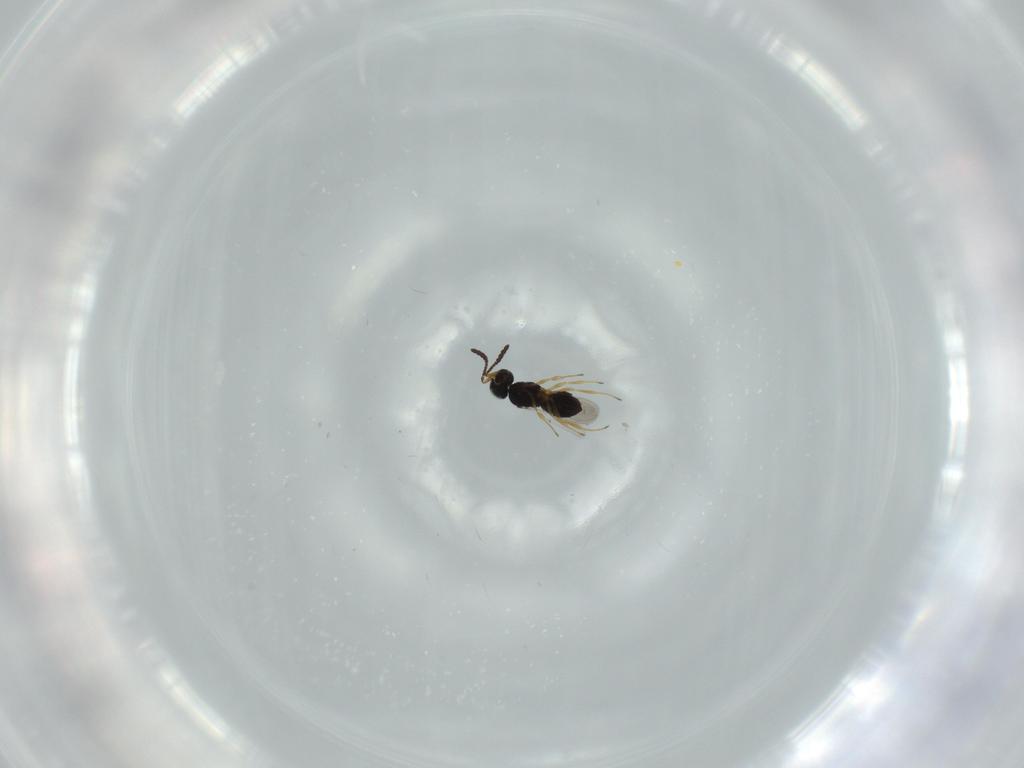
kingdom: Animalia
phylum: Arthropoda
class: Insecta
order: Hymenoptera
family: Scelionidae
